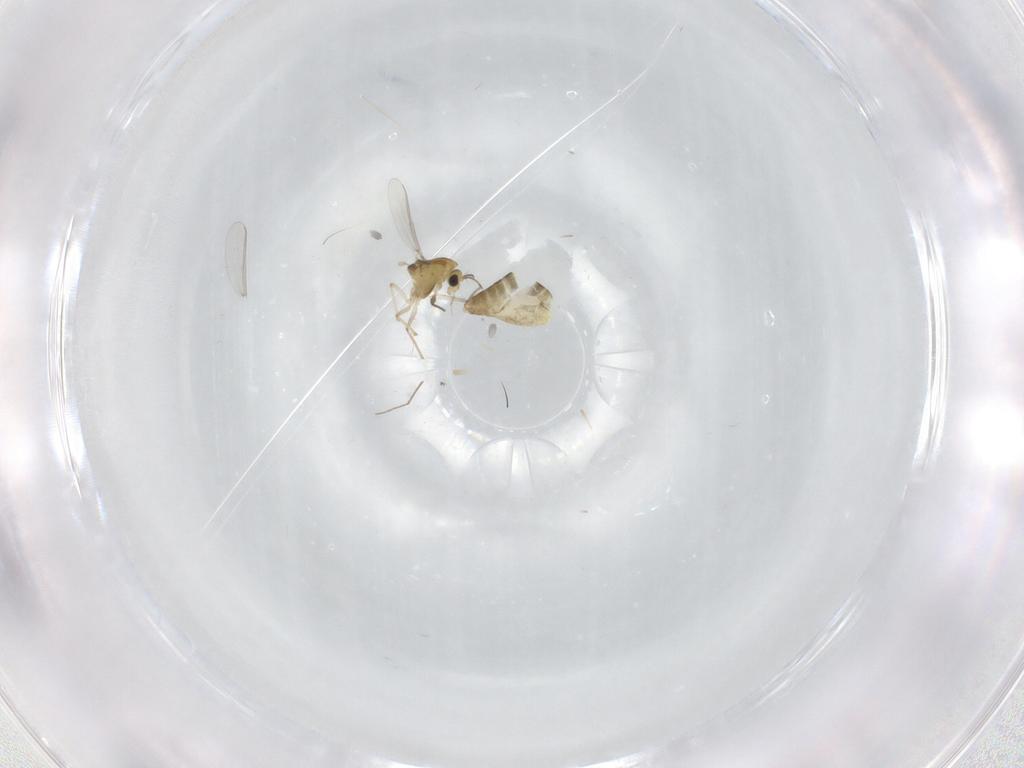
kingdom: Animalia
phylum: Arthropoda
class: Insecta
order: Diptera
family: Chironomidae
